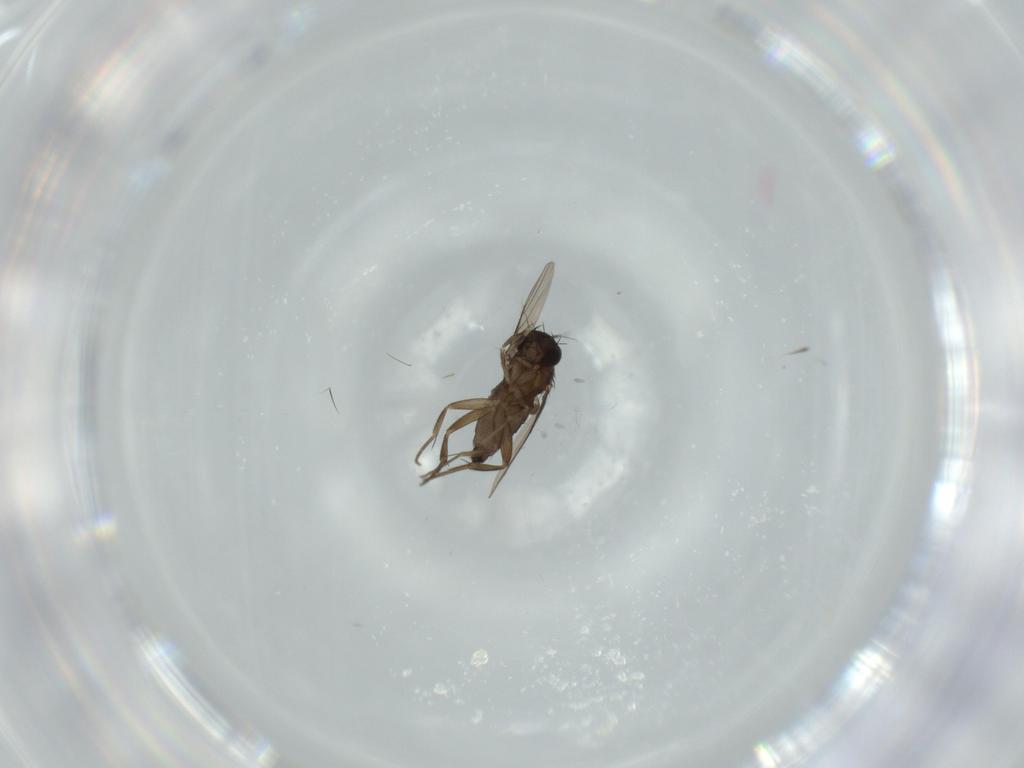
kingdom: Animalia
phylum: Arthropoda
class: Insecta
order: Diptera
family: Phoridae
